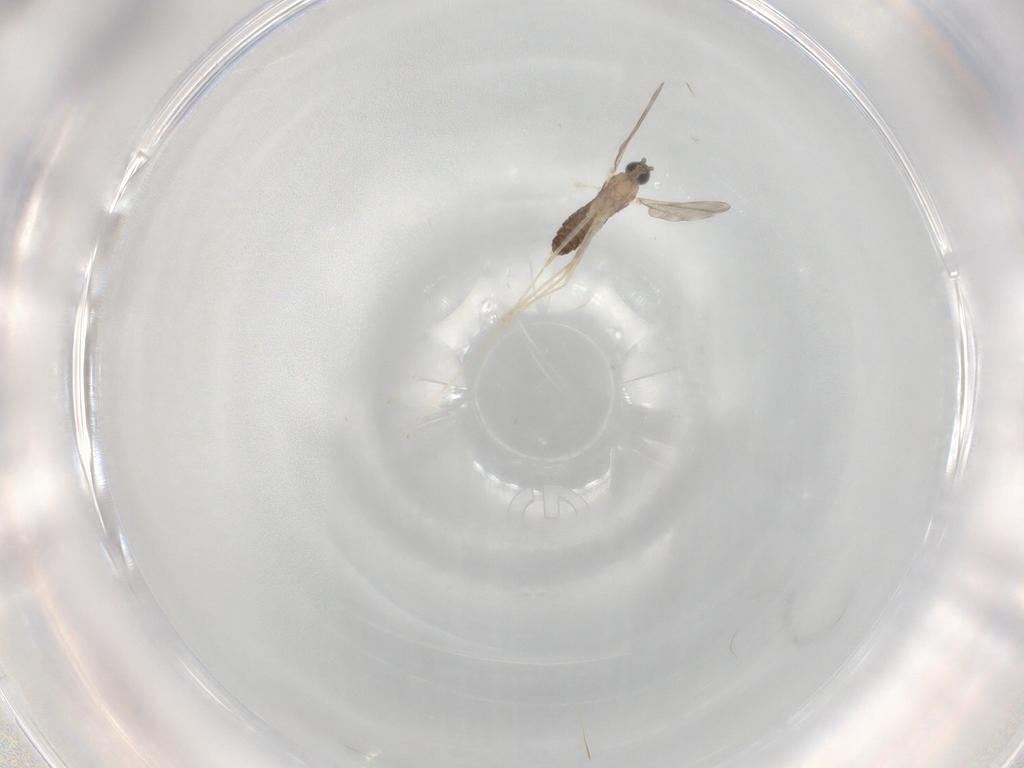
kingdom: Animalia
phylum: Arthropoda
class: Insecta
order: Diptera
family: Cecidomyiidae
